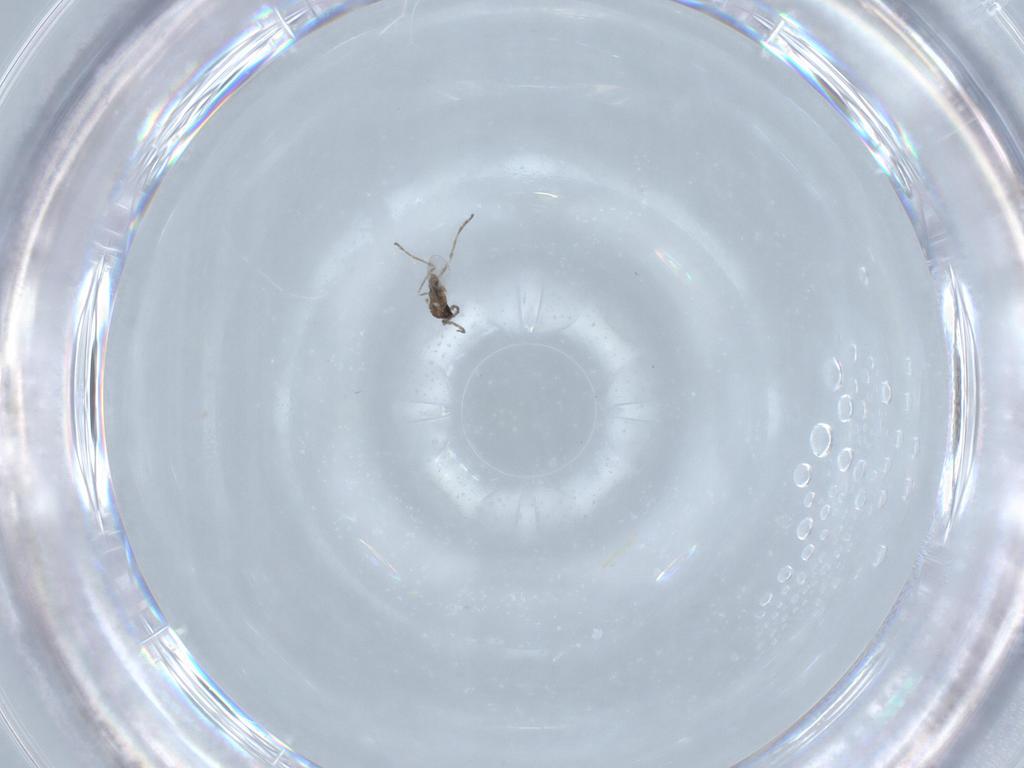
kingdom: Animalia
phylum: Arthropoda
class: Insecta
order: Diptera
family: Cecidomyiidae
